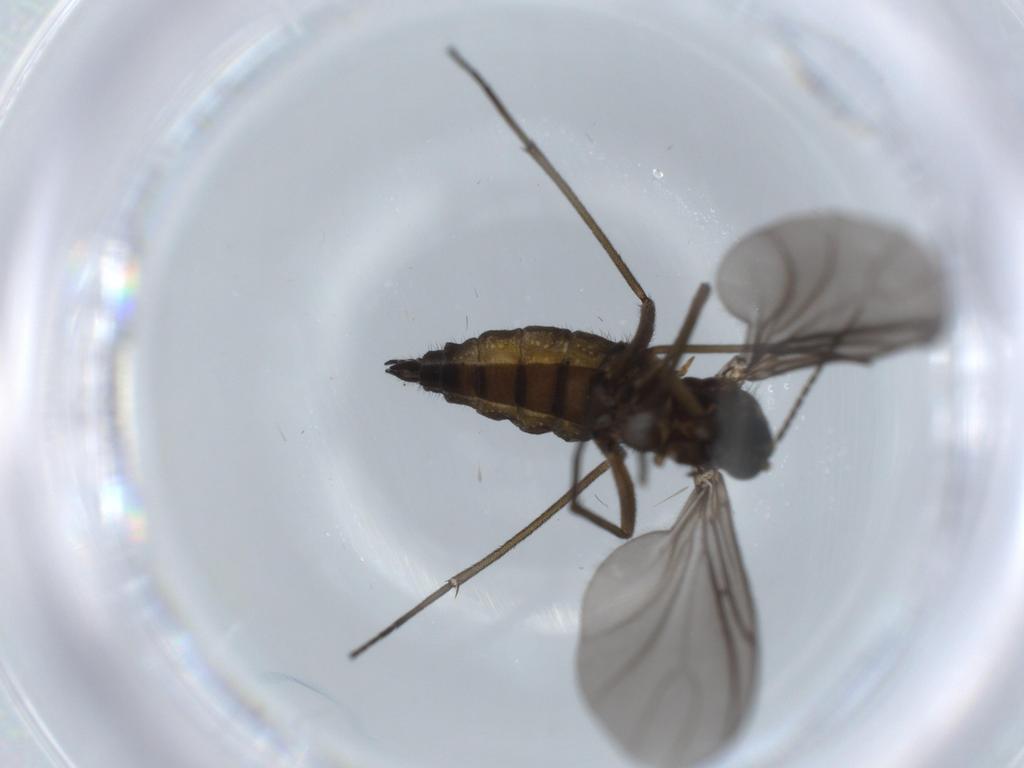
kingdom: Animalia
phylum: Arthropoda
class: Insecta
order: Diptera
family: Sciaridae
